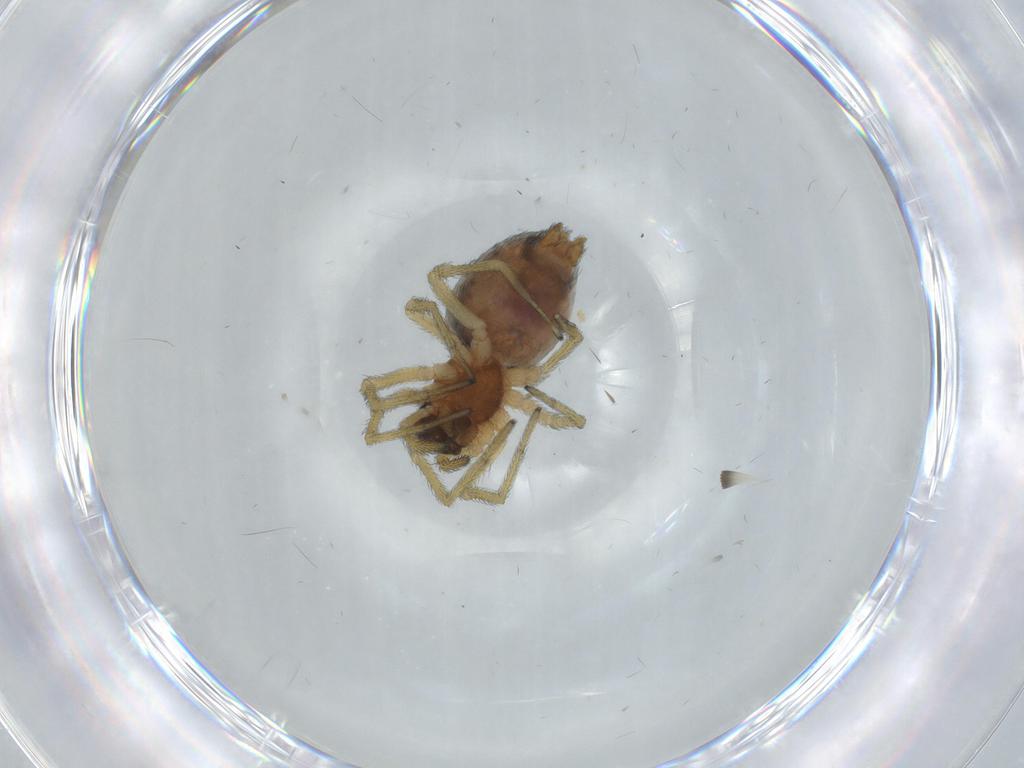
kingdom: Animalia
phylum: Arthropoda
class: Arachnida
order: Araneae
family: Dictynidae
